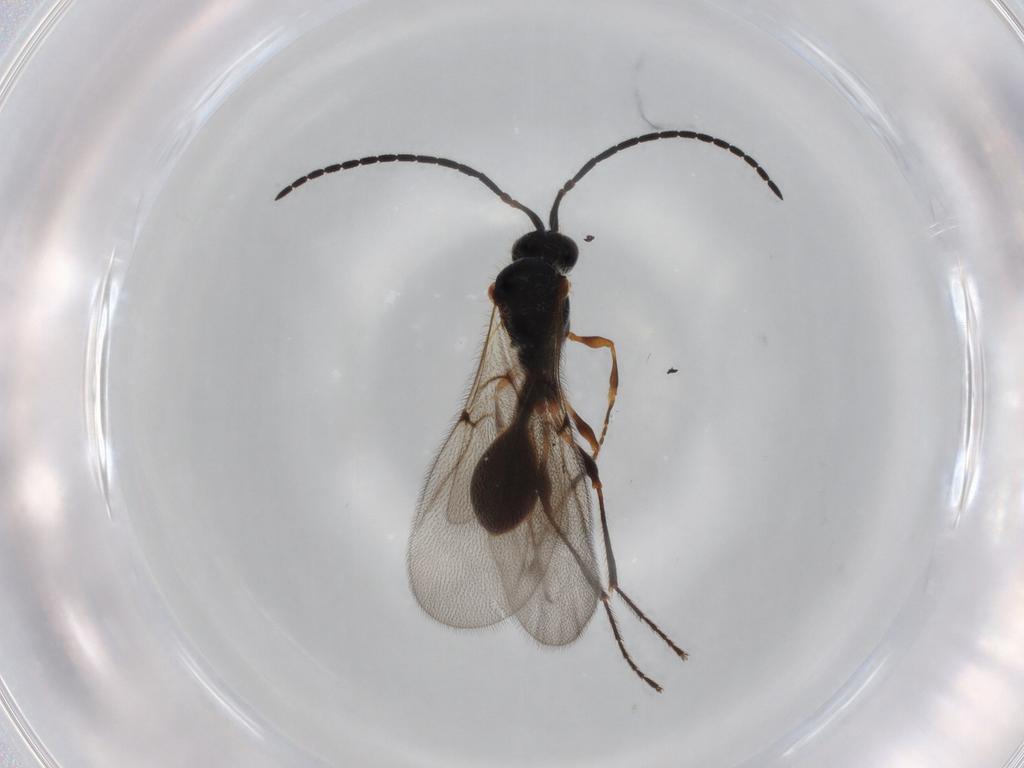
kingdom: Animalia
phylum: Arthropoda
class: Insecta
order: Hymenoptera
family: Diapriidae
